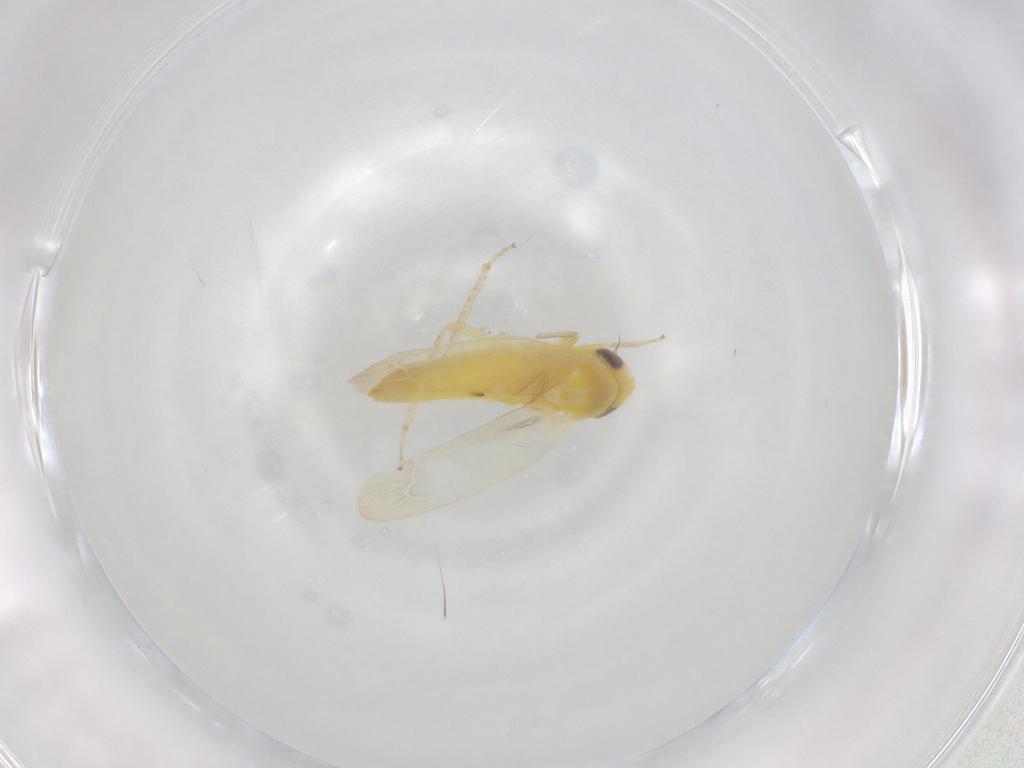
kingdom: Animalia
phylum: Arthropoda
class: Insecta
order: Hemiptera
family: Cicadellidae
